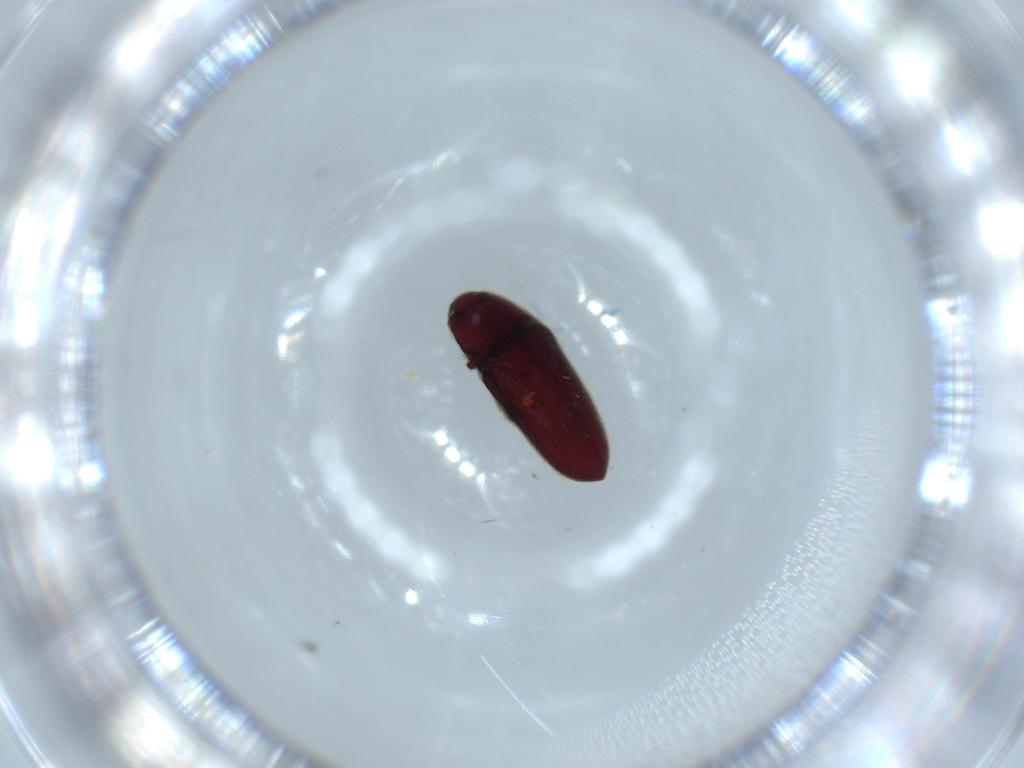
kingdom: Animalia
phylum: Arthropoda
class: Insecta
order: Coleoptera
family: Throscidae
